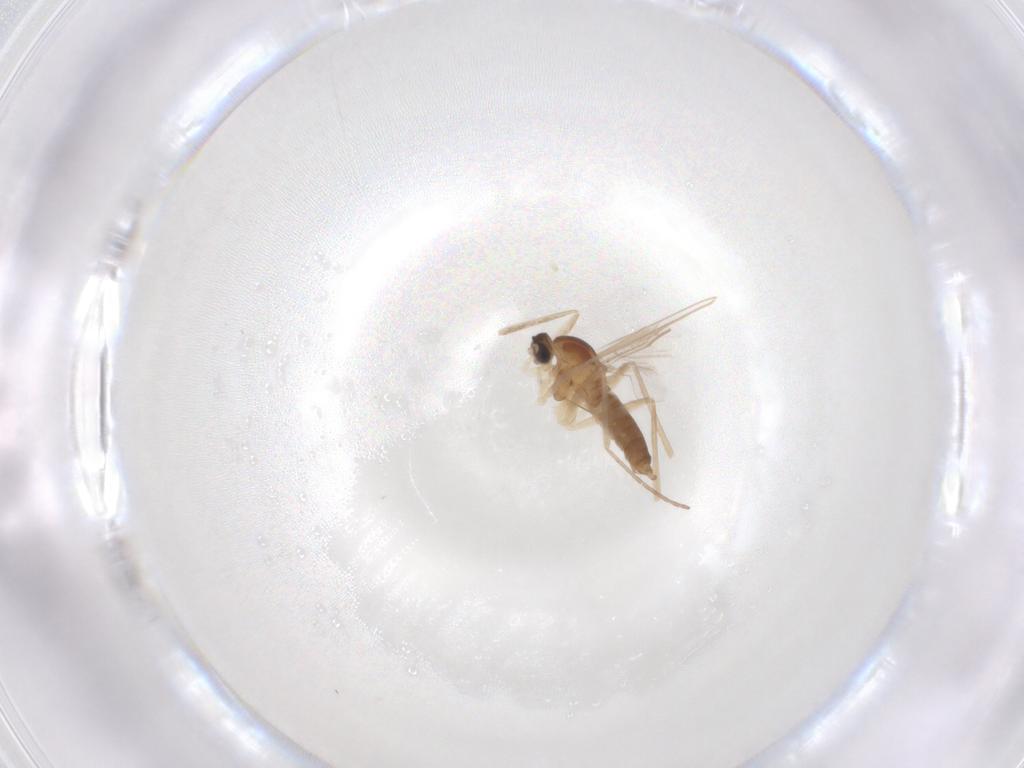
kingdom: Animalia
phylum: Arthropoda
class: Insecta
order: Diptera
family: Cecidomyiidae
